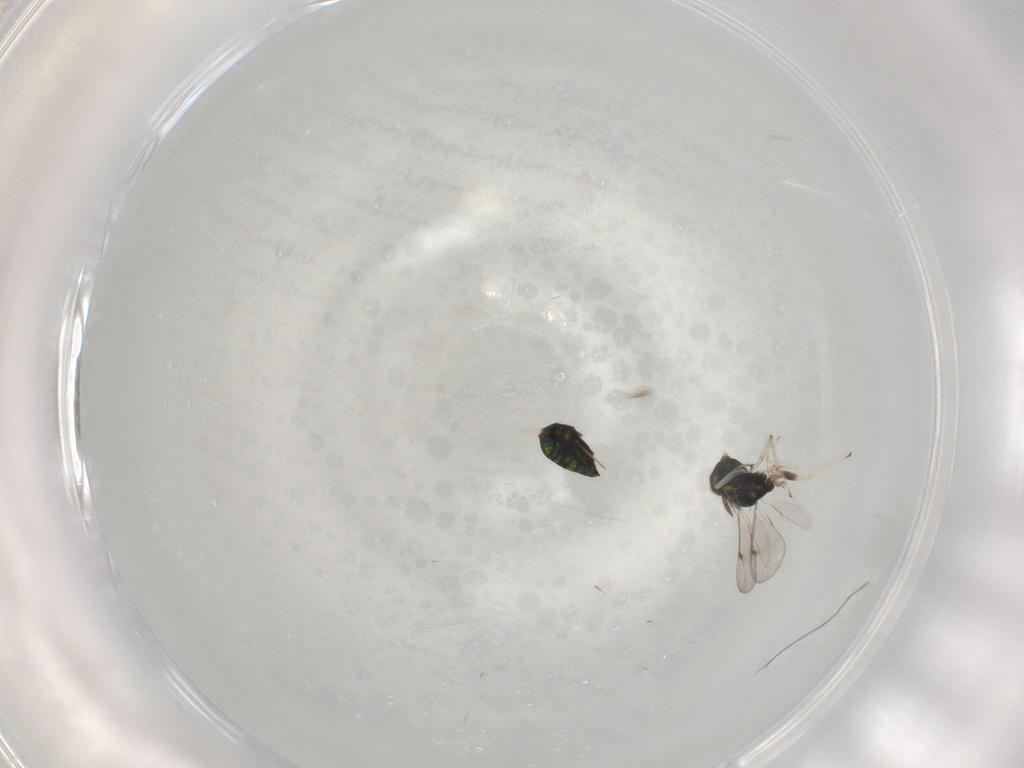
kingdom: Animalia
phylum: Arthropoda
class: Insecta
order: Hymenoptera
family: Eulophidae
